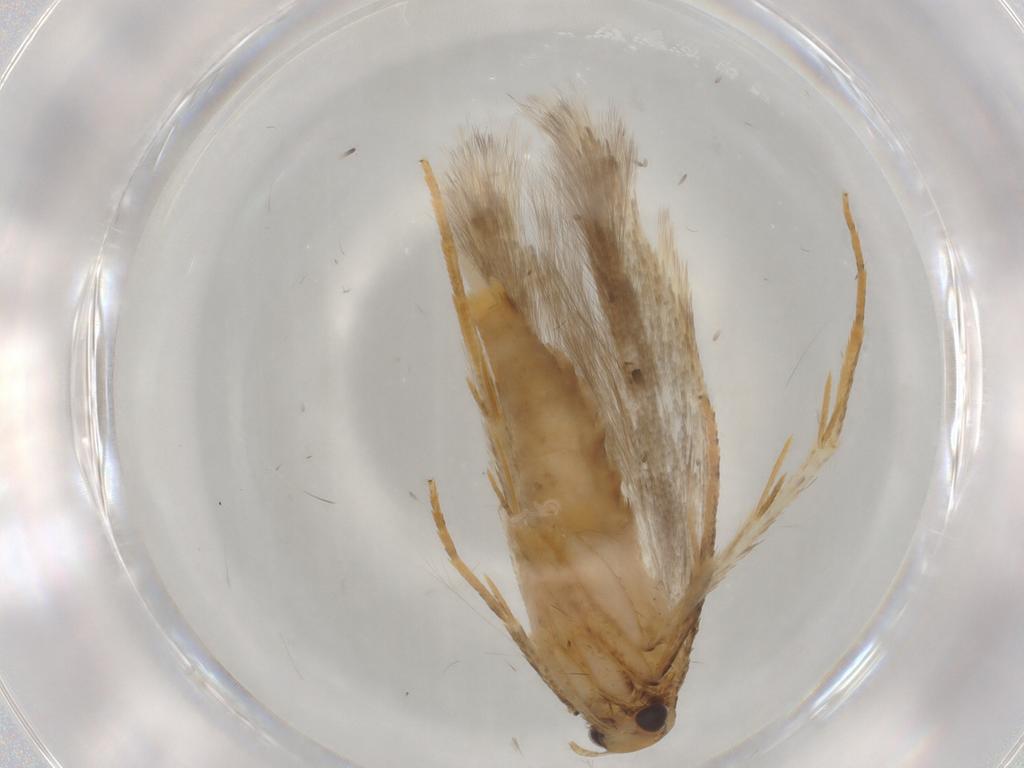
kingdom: Animalia
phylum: Arthropoda
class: Insecta
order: Lepidoptera
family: Gelechiidae
